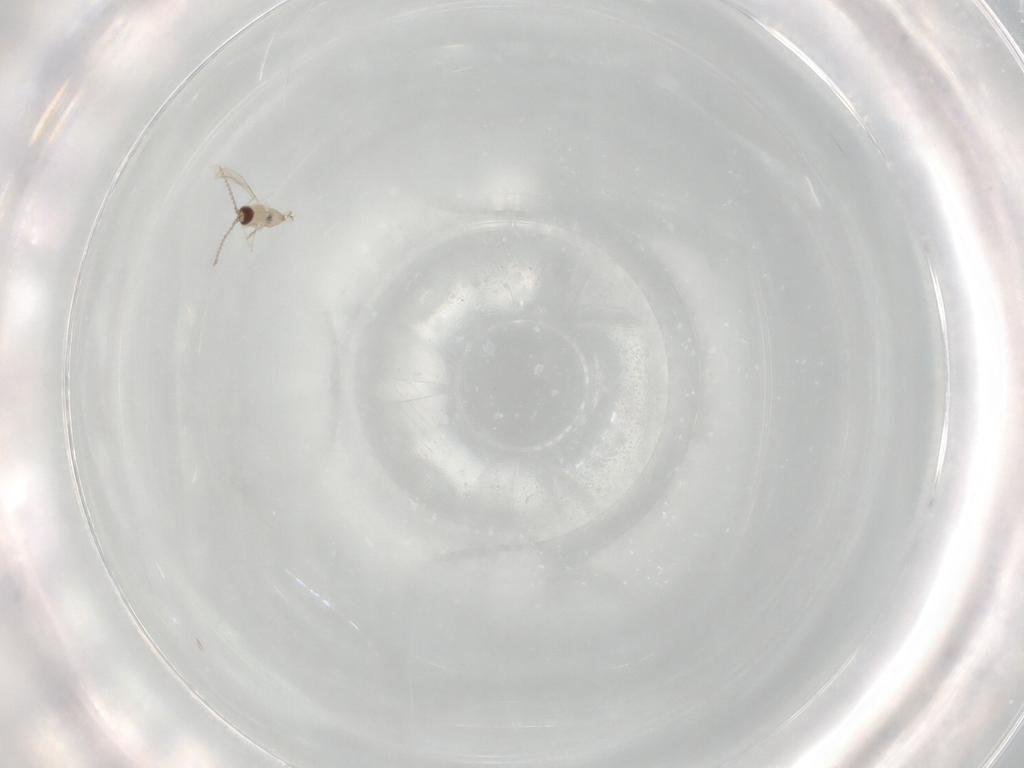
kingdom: Animalia
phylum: Arthropoda
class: Insecta
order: Diptera
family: Cecidomyiidae
